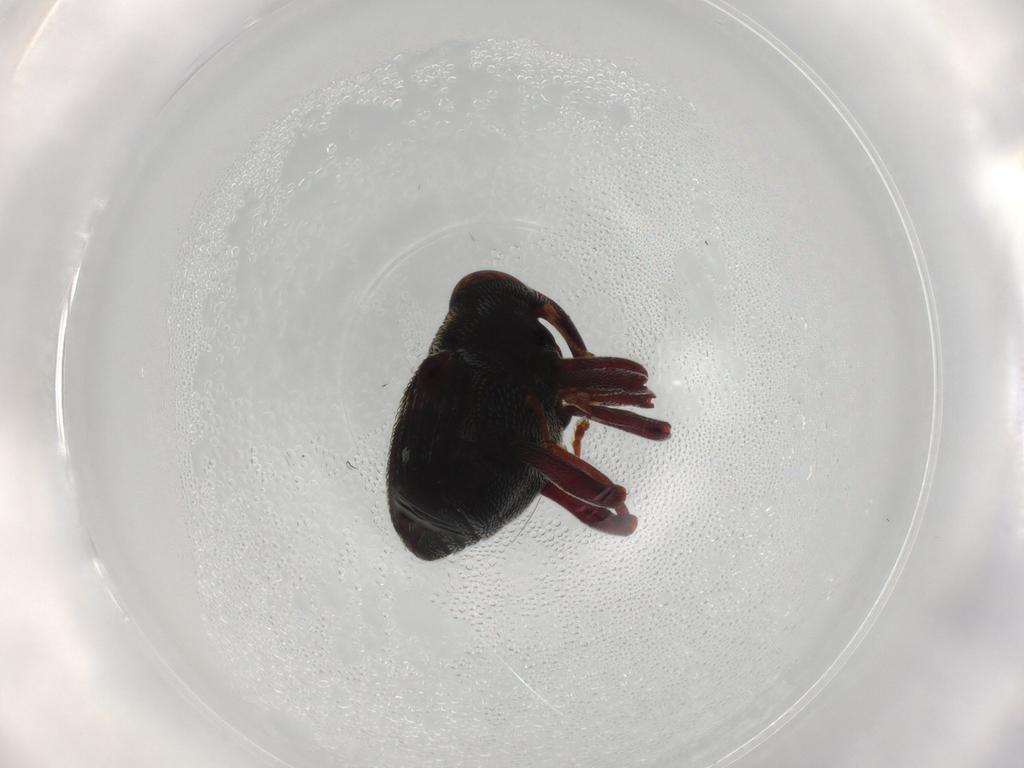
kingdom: Animalia
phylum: Arthropoda
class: Insecta
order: Coleoptera
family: Curculionidae
